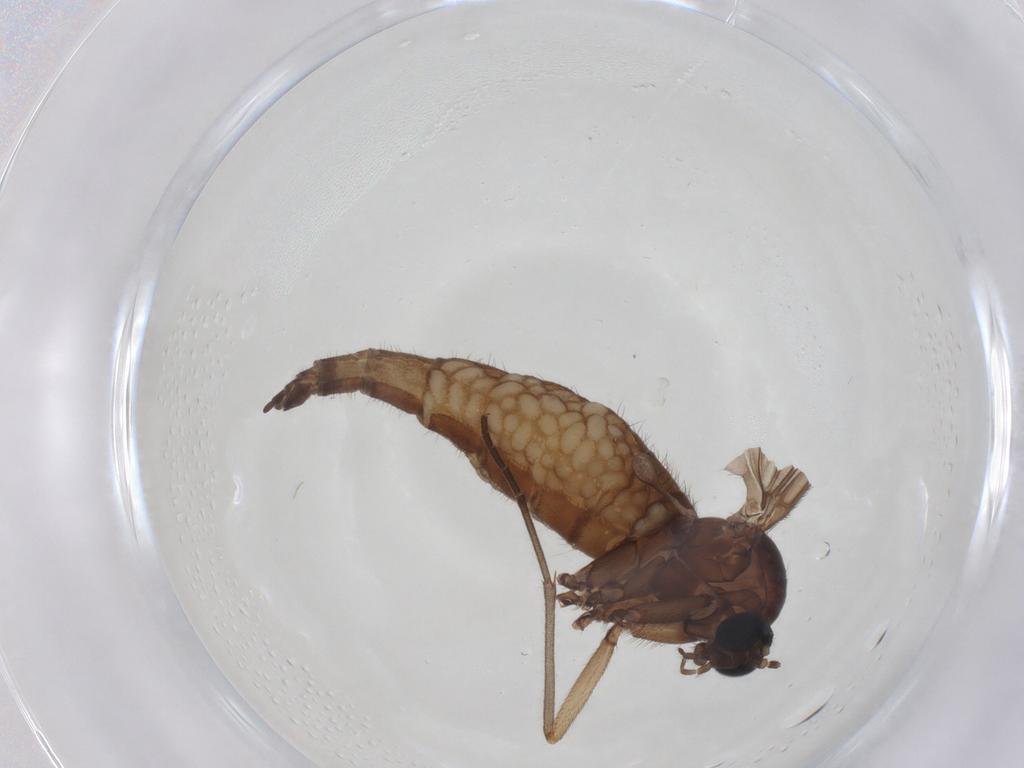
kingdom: Animalia
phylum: Arthropoda
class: Insecta
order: Diptera
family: Sciaridae
